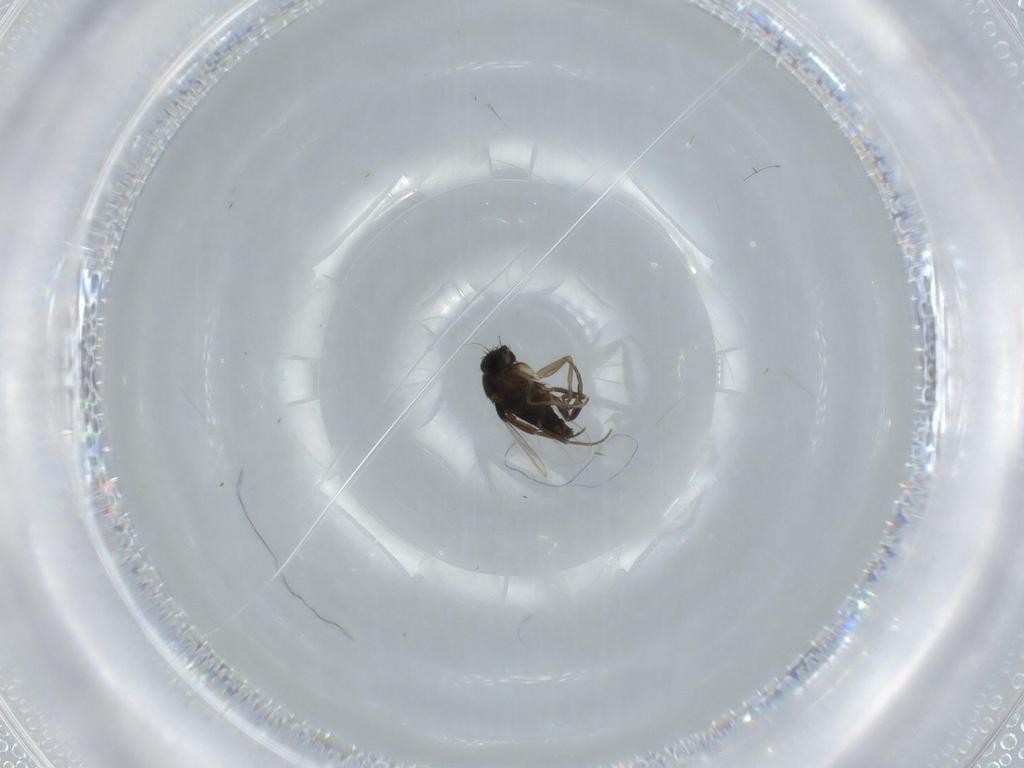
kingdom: Animalia
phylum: Arthropoda
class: Insecta
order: Diptera
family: Phoridae
